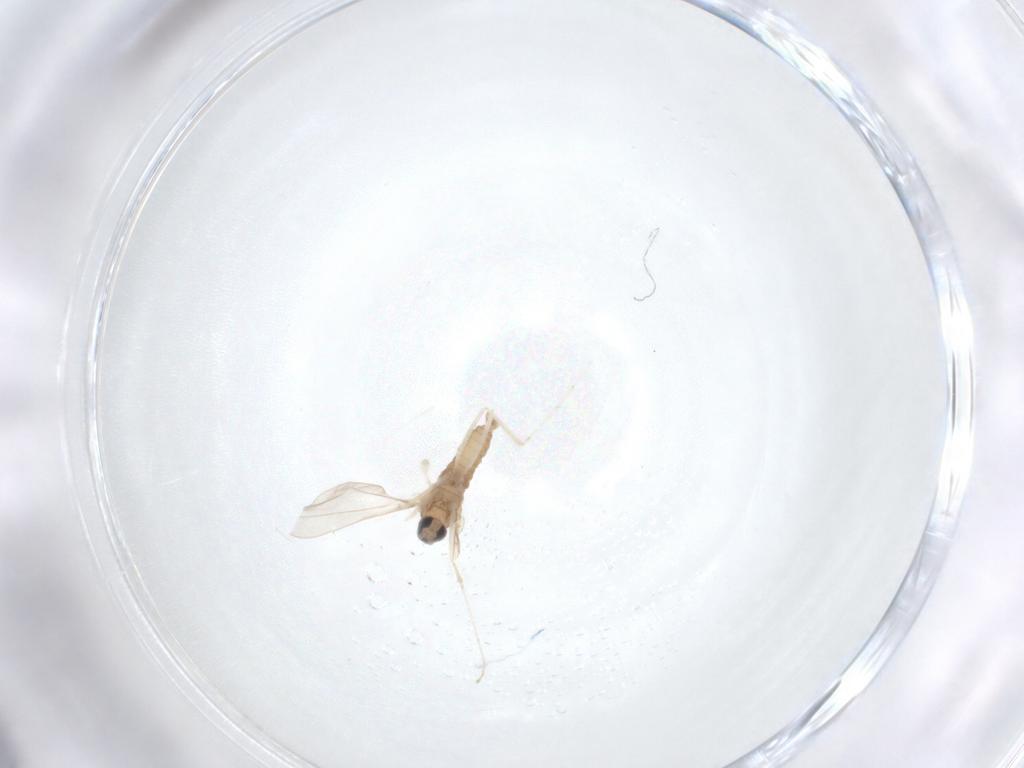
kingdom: Animalia
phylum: Arthropoda
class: Insecta
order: Diptera
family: Cecidomyiidae
